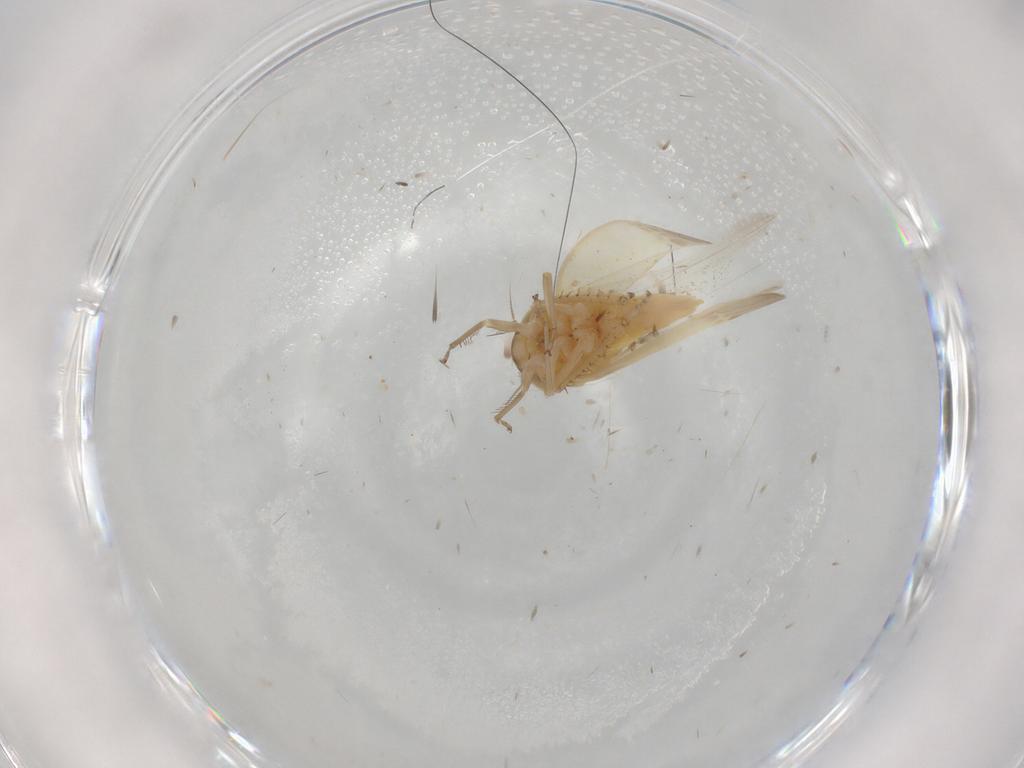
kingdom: Animalia
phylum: Arthropoda
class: Insecta
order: Hemiptera
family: Cicadellidae
